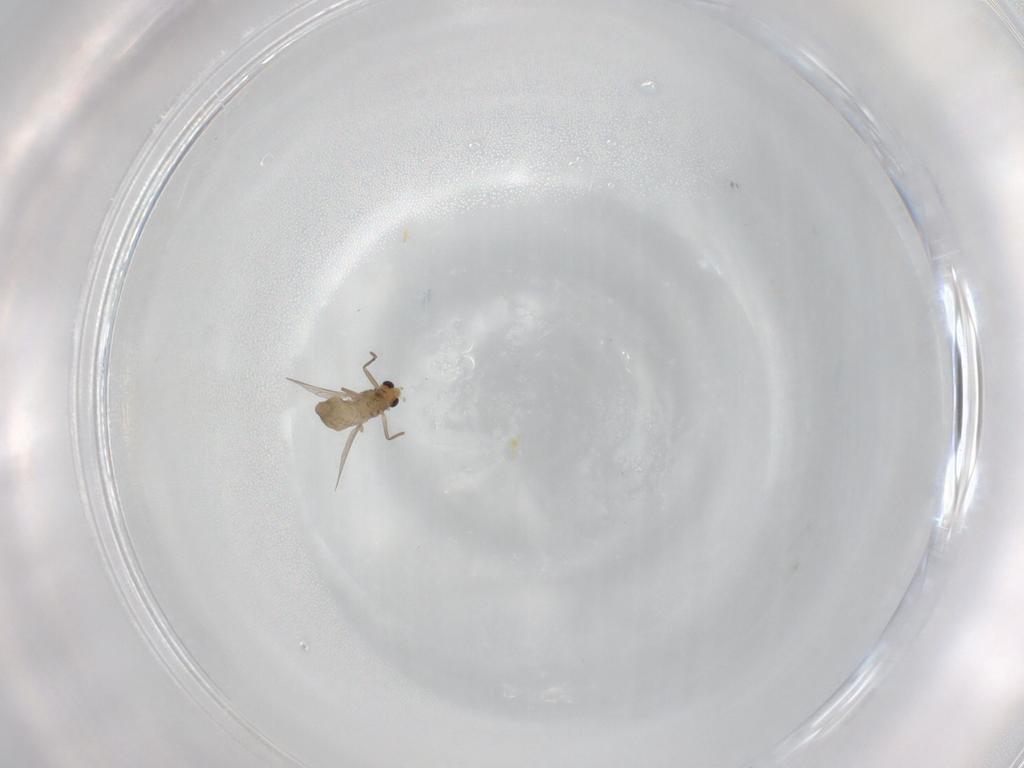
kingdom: Animalia
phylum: Arthropoda
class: Insecta
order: Diptera
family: Chironomidae
